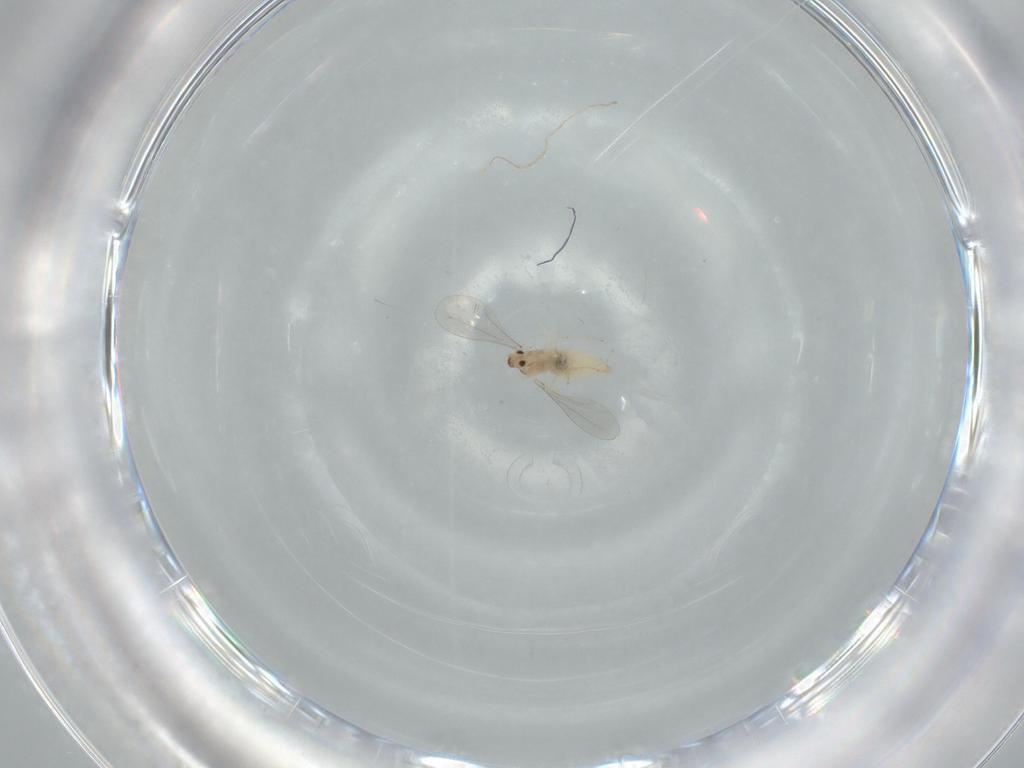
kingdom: Animalia
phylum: Arthropoda
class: Insecta
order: Diptera
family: Cecidomyiidae
